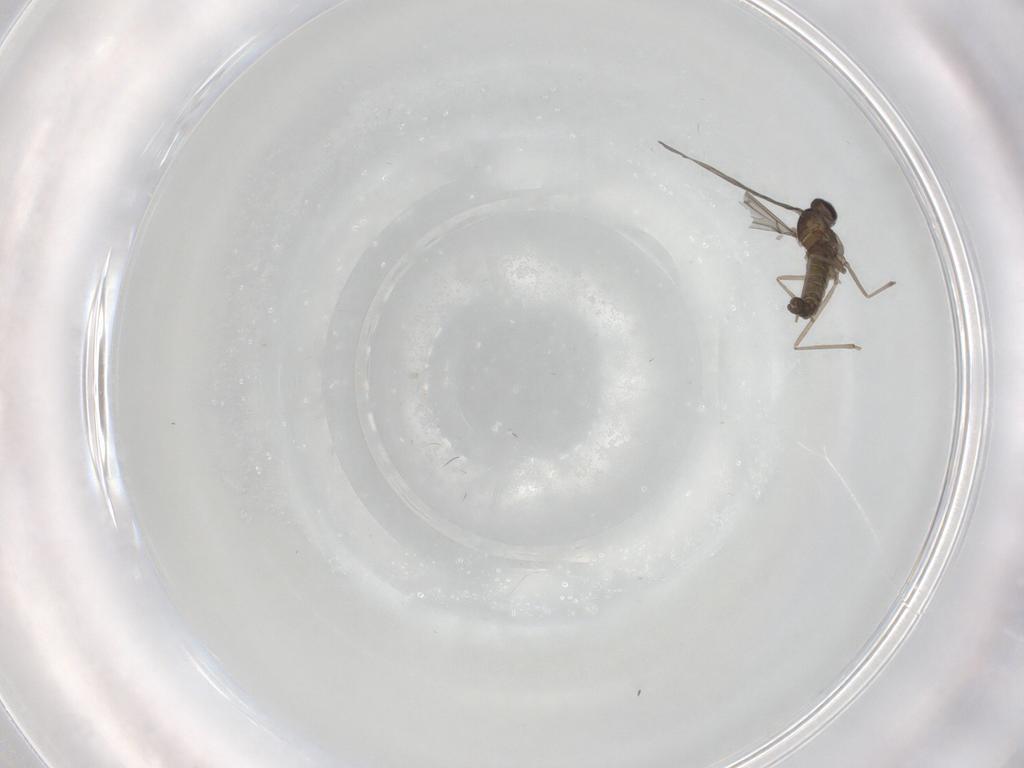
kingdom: Animalia
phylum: Arthropoda
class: Insecta
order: Diptera
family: Cecidomyiidae
